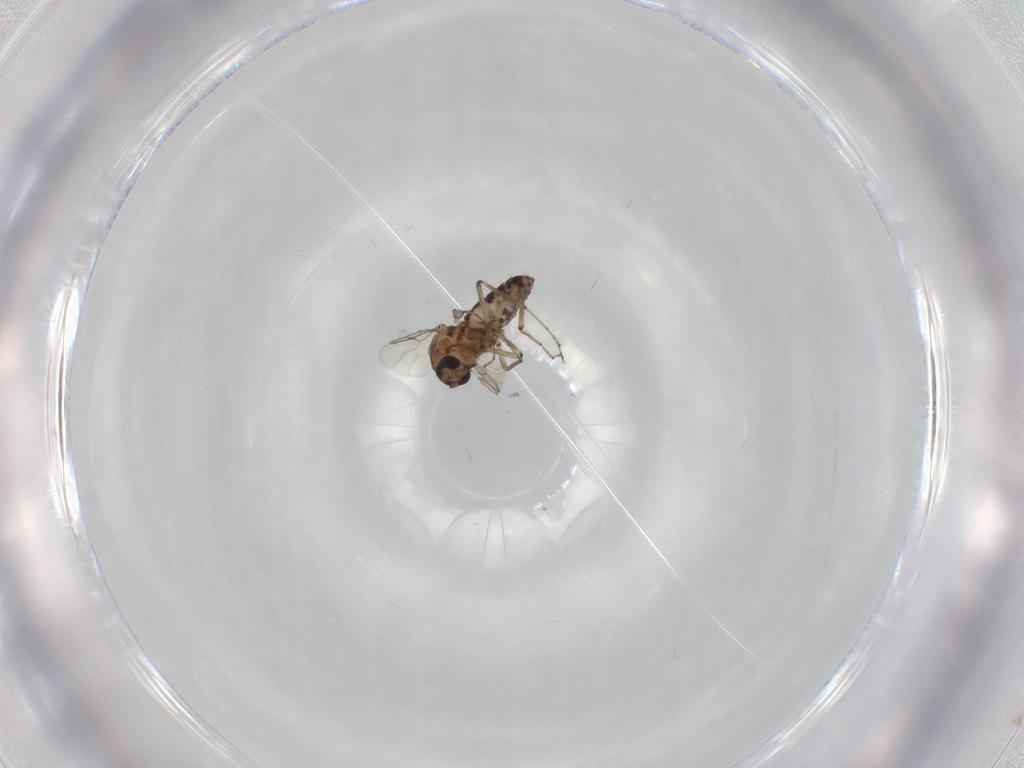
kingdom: Animalia
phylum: Arthropoda
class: Insecta
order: Diptera
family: Ceratopogonidae
